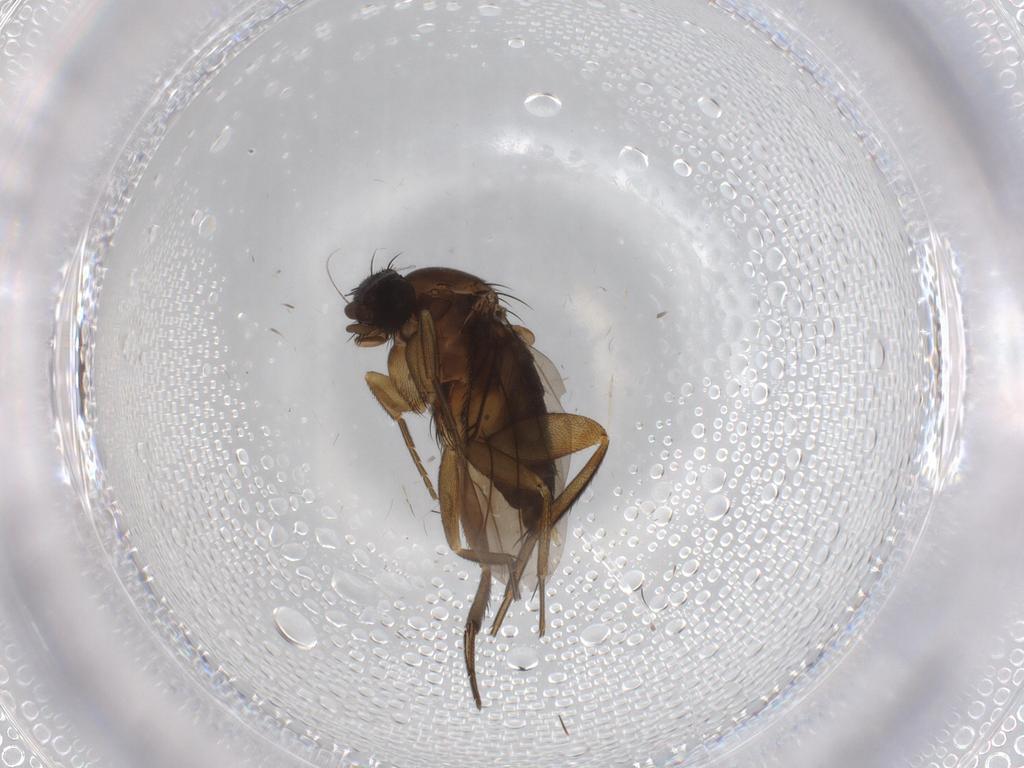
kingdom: Animalia
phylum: Arthropoda
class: Insecta
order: Diptera
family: Phoridae
